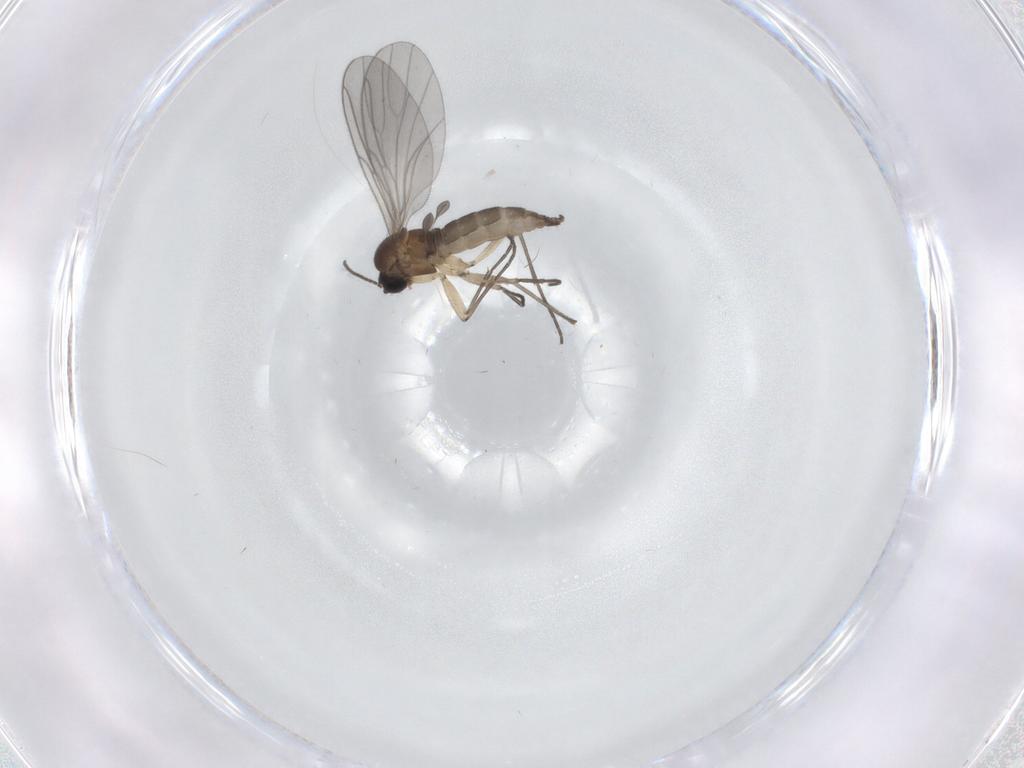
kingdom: Animalia
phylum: Arthropoda
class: Insecta
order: Diptera
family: Sciaridae
